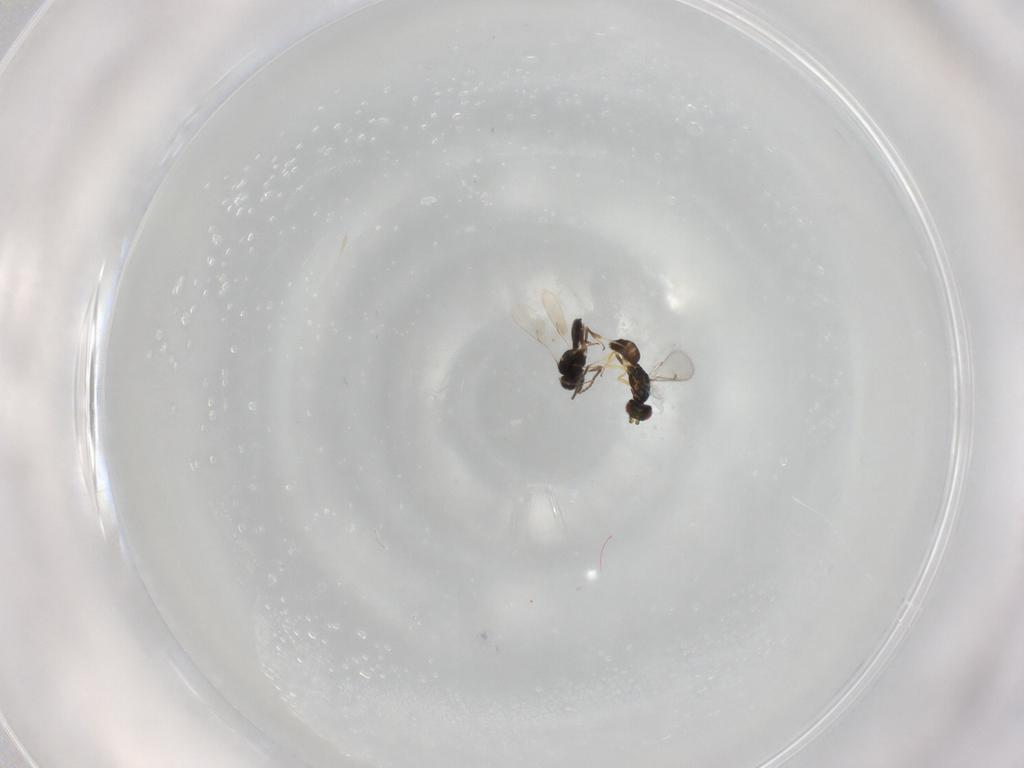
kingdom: Animalia
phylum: Arthropoda
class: Insecta
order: Hymenoptera
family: Scelionidae
